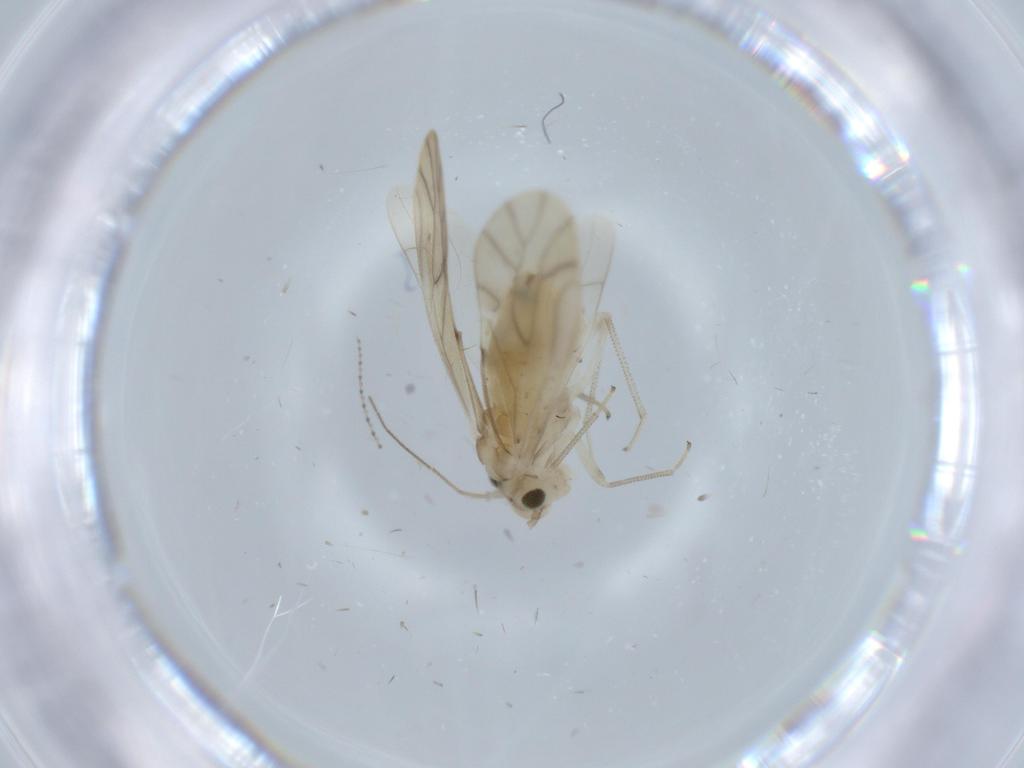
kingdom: Animalia
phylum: Arthropoda
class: Insecta
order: Psocodea
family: Caeciliusidae
